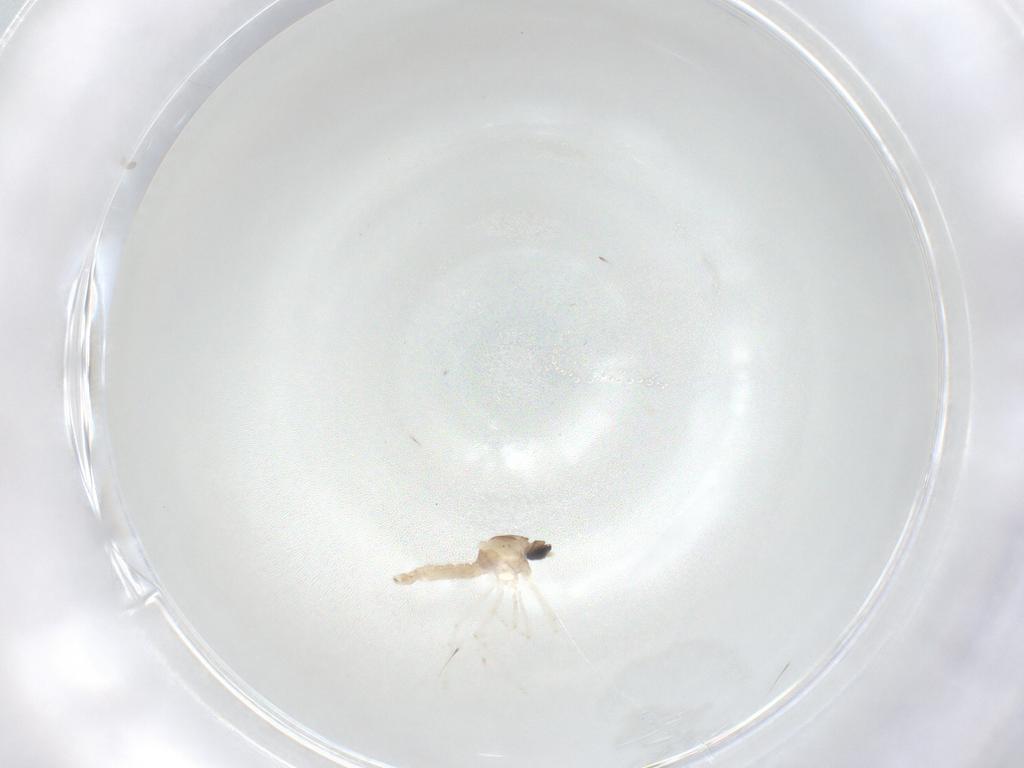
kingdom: Animalia
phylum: Arthropoda
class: Insecta
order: Diptera
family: Cecidomyiidae
